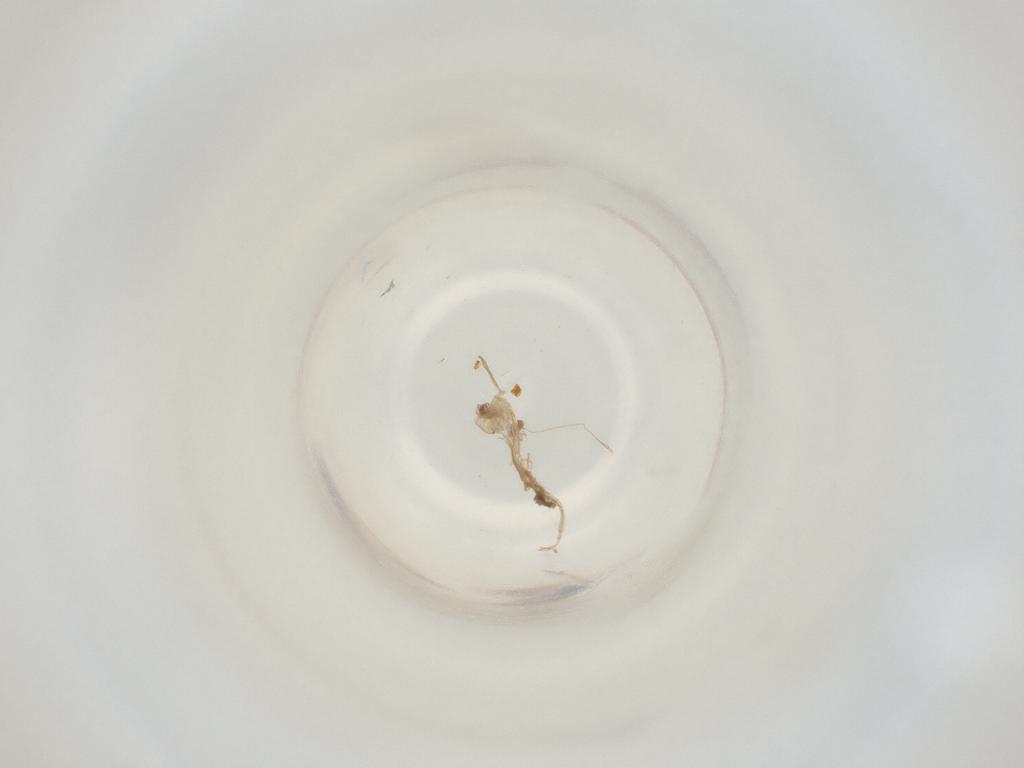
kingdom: Animalia
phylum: Arthropoda
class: Insecta
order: Diptera
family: Cecidomyiidae
